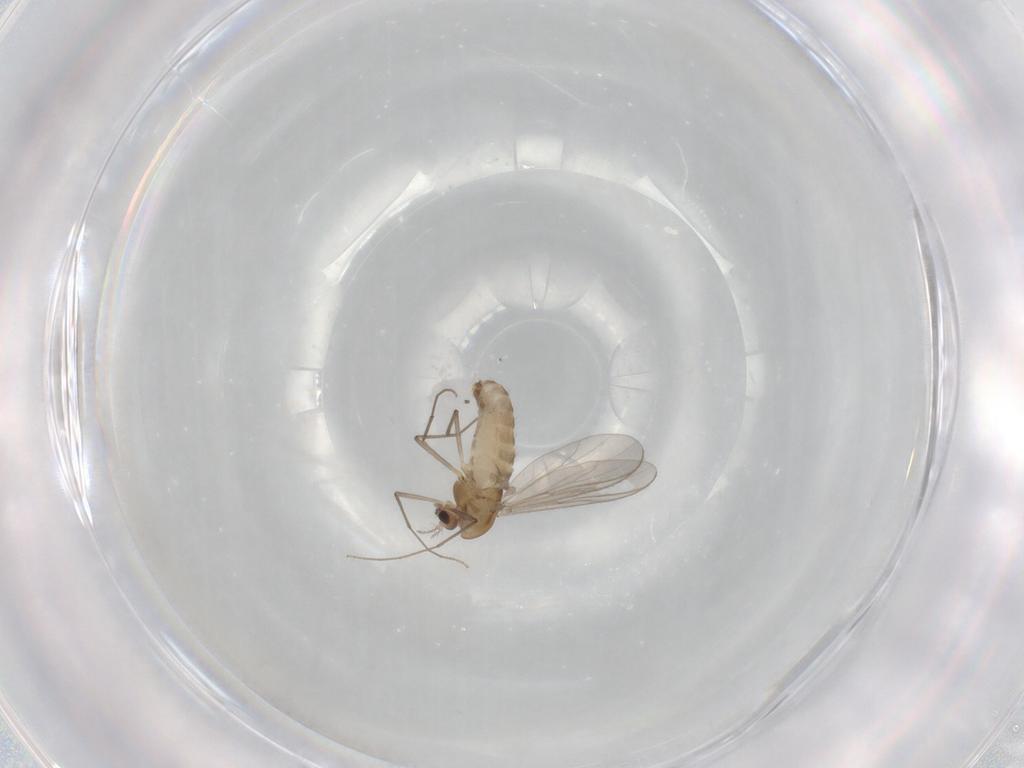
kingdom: Animalia
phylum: Arthropoda
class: Insecta
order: Diptera
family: Chironomidae
